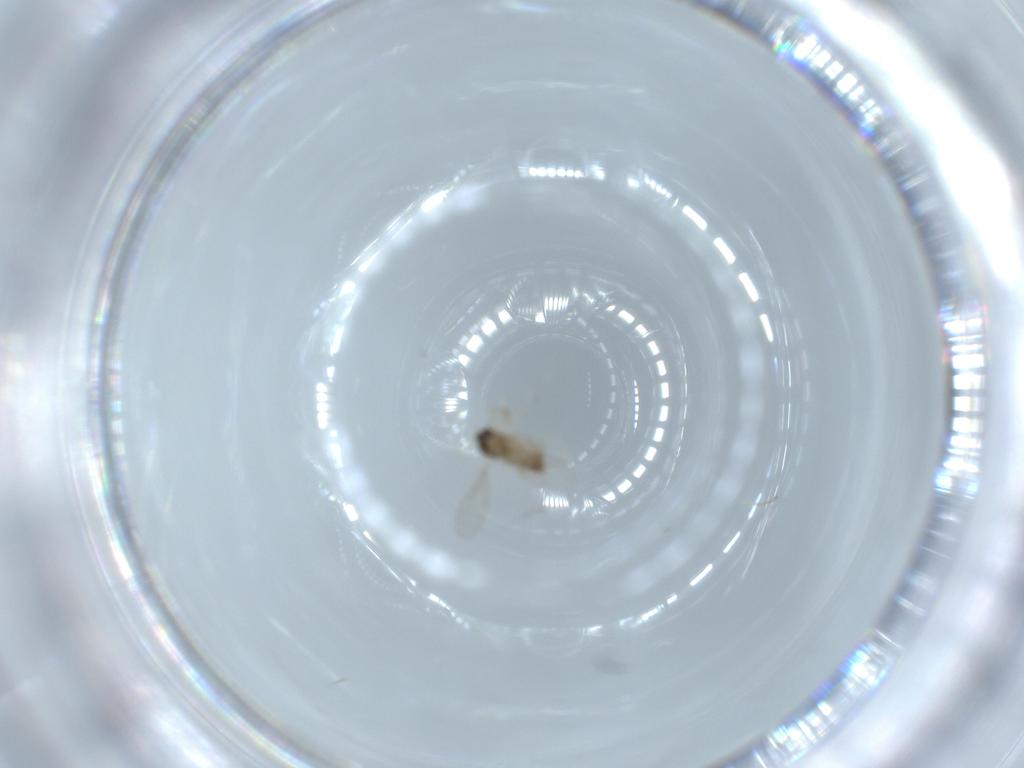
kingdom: Animalia
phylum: Arthropoda
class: Insecta
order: Diptera
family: Cecidomyiidae
